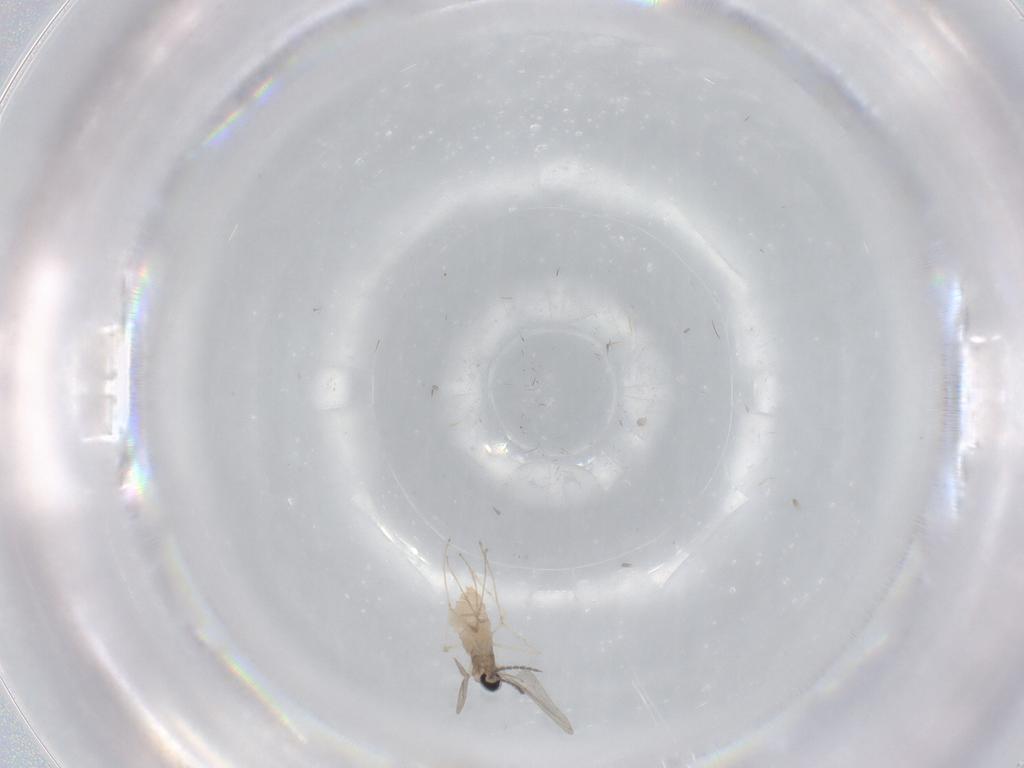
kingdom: Animalia
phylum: Arthropoda
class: Insecta
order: Diptera
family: Cecidomyiidae
